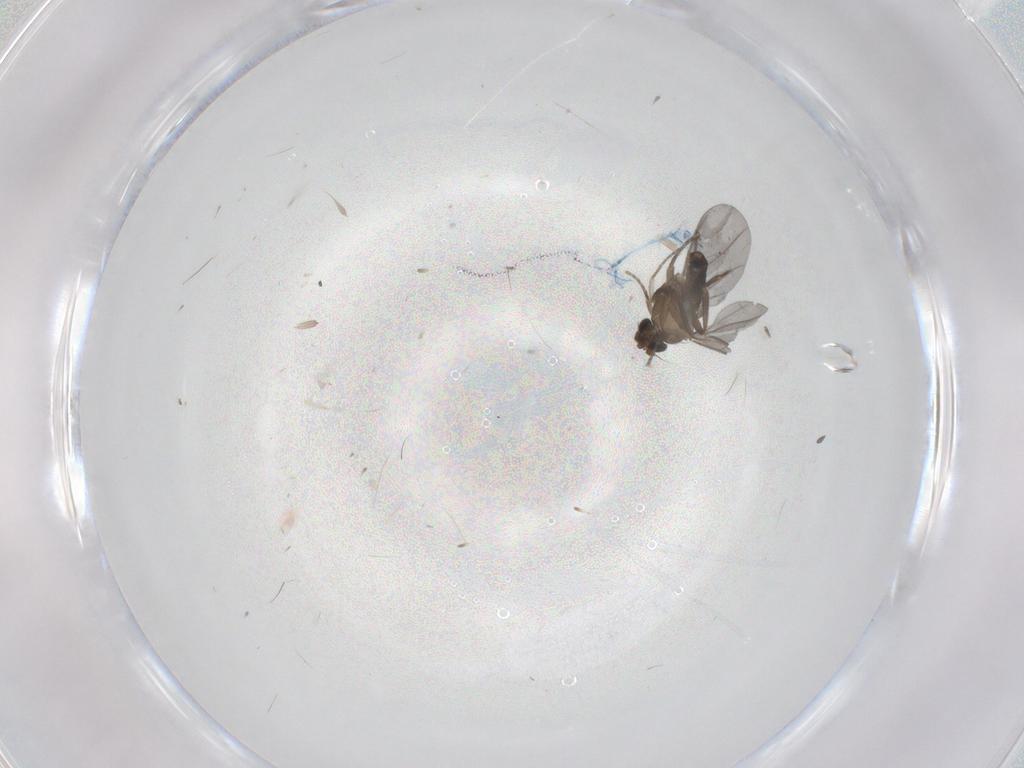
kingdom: Animalia
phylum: Arthropoda
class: Insecta
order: Diptera
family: Phoridae
